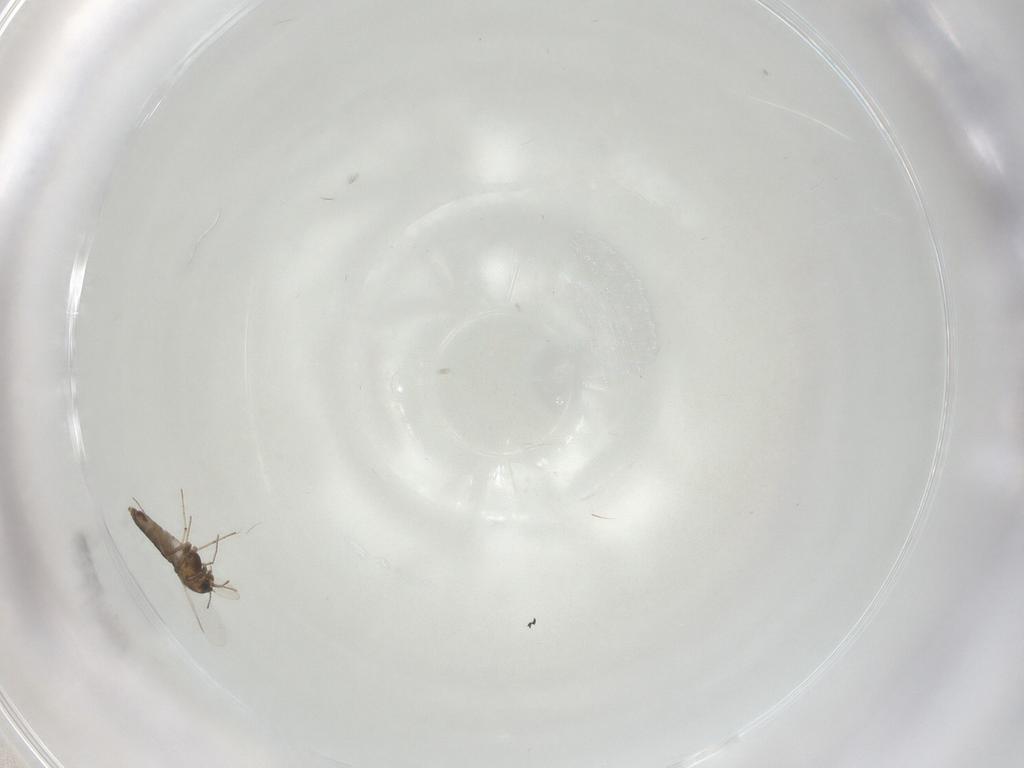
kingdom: Animalia
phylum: Arthropoda
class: Insecta
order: Diptera
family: Chironomidae
